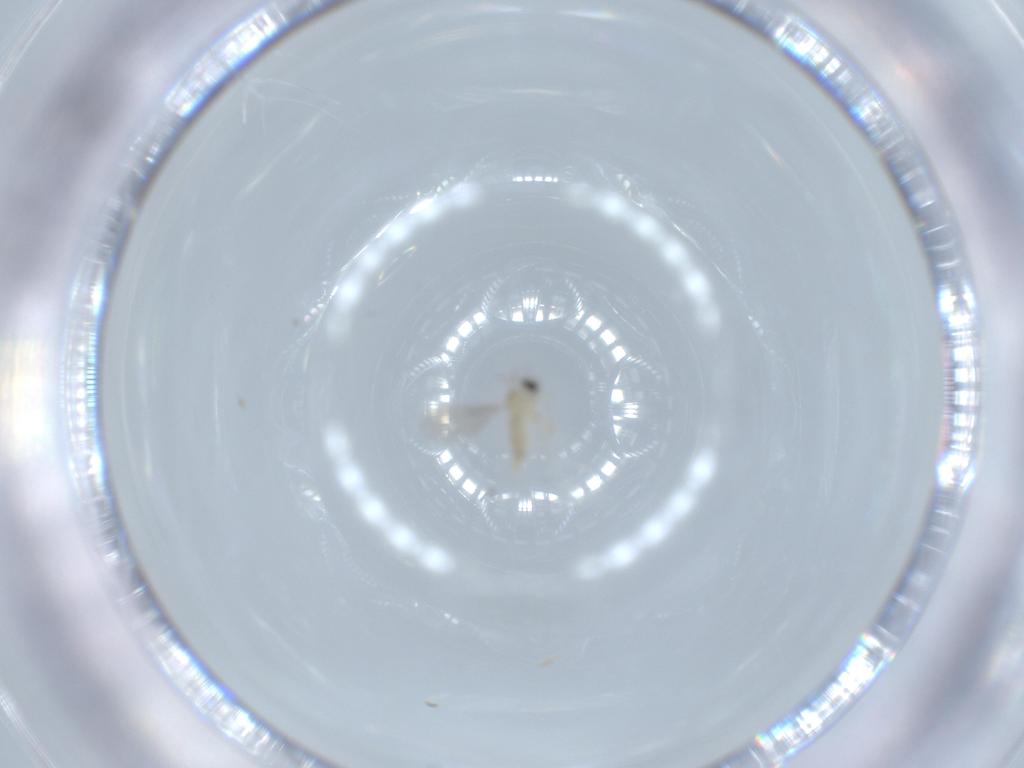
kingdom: Animalia
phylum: Arthropoda
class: Insecta
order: Diptera
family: Cecidomyiidae
